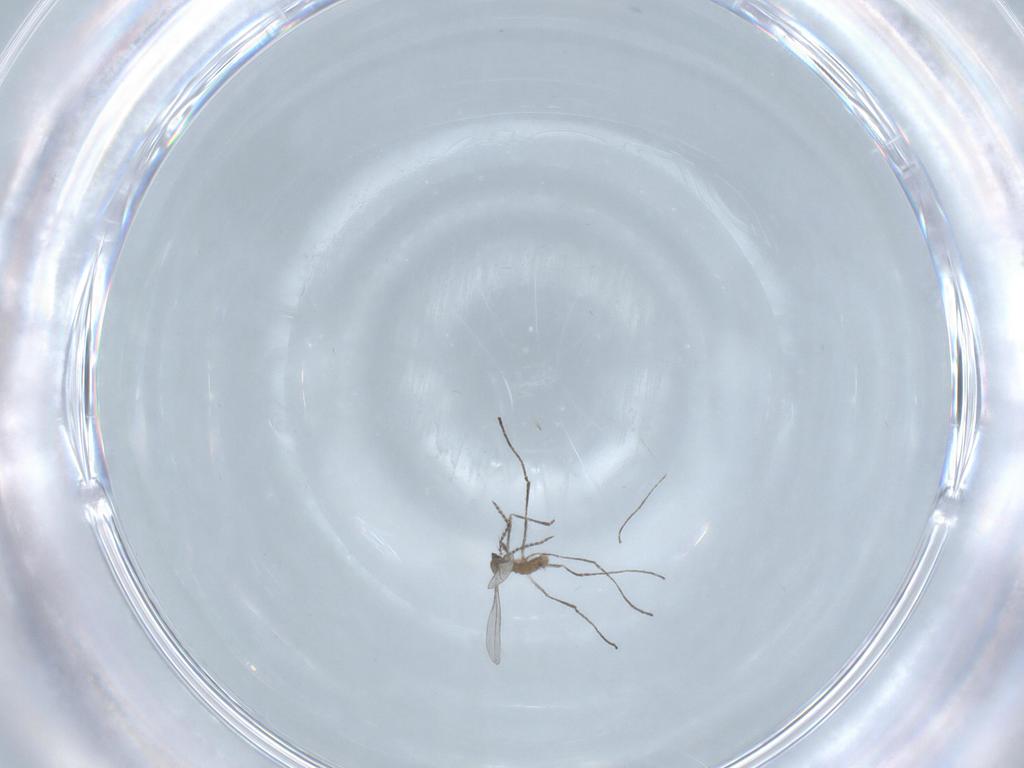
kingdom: Animalia
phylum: Arthropoda
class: Insecta
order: Diptera
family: Cecidomyiidae
